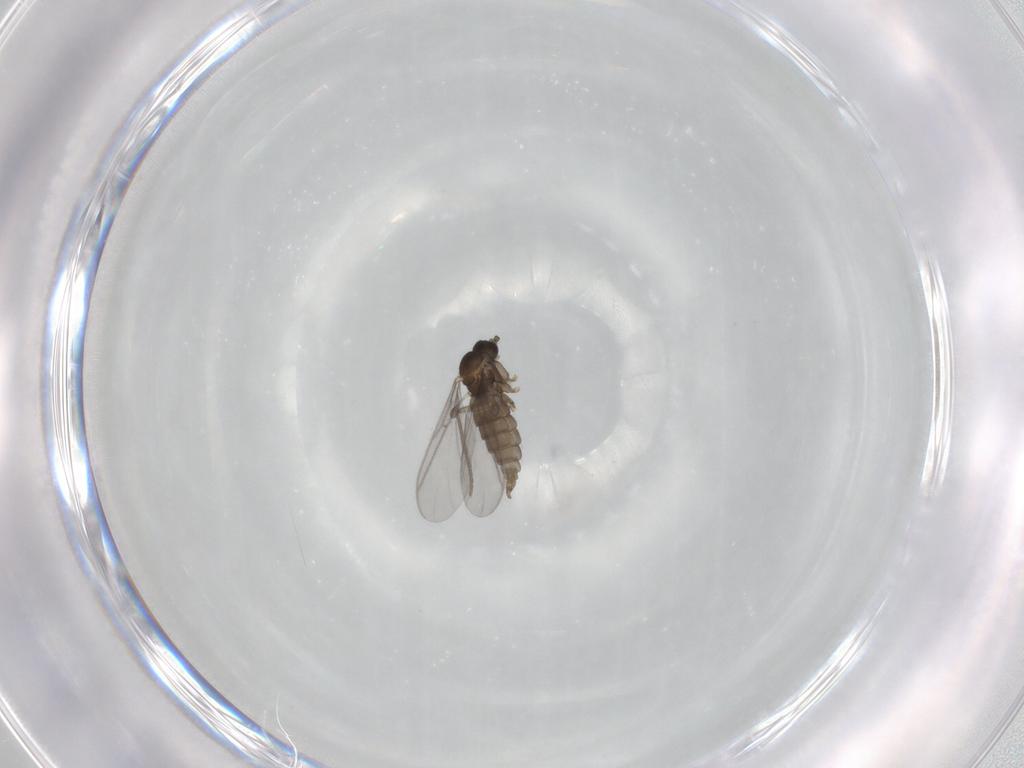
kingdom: Animalia
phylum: Arthropoda
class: Insecta
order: Diptera
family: Sciaridae
